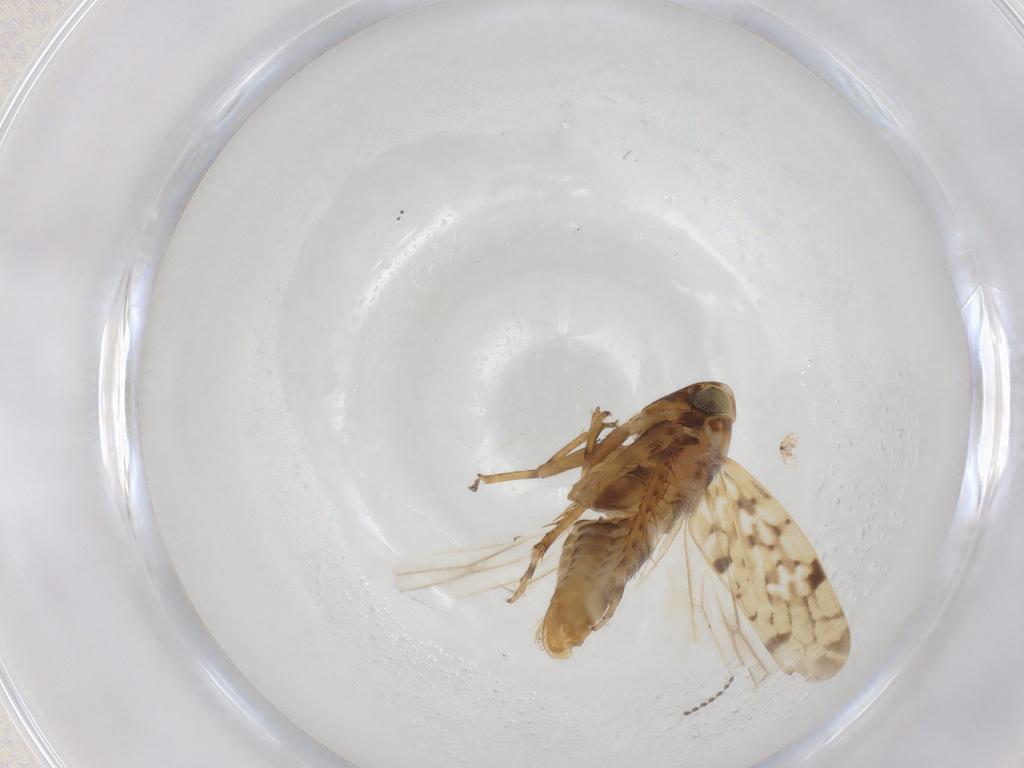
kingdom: Animalia
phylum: Arthropoda
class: Insecta
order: Hemiptera
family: Cicadellidae
